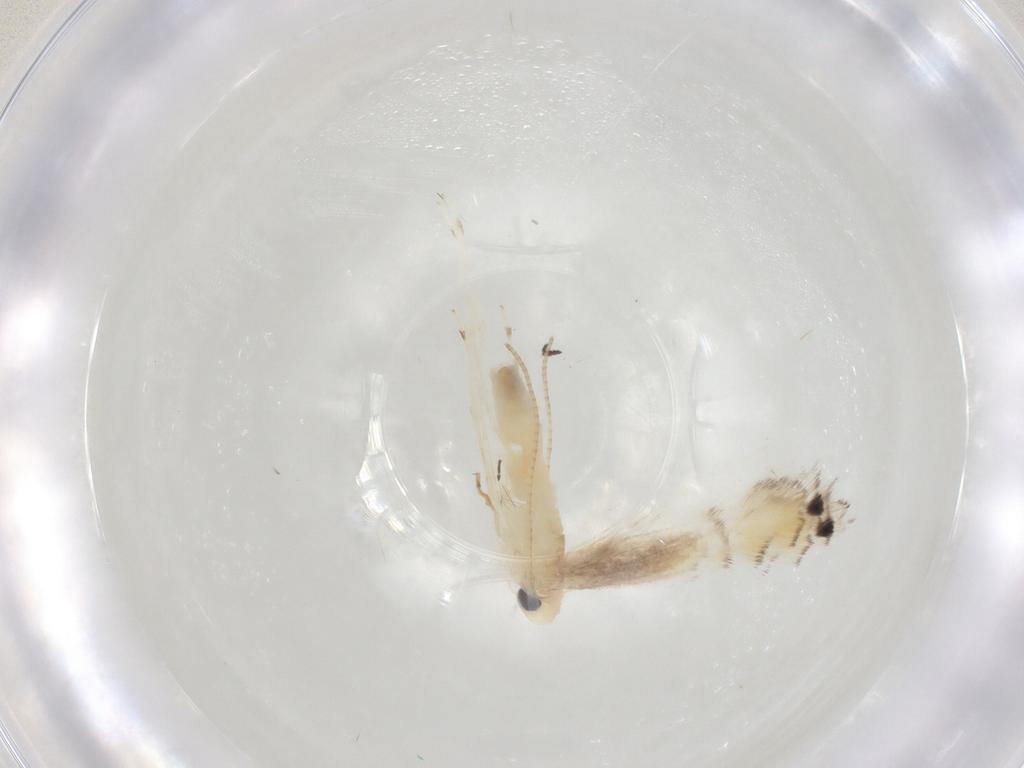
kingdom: Animalia
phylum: Arthropoda
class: Insecta
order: Lepidoptera
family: Gracillariidae
